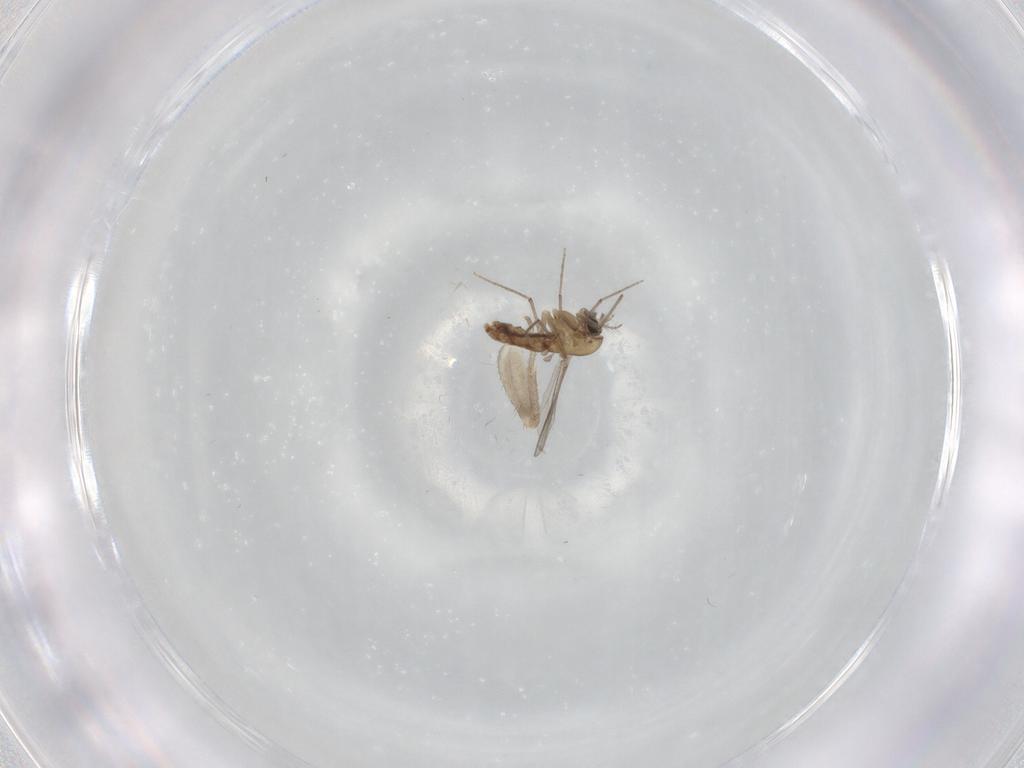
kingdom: Animalia
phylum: Arthropoda
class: Insecta
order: Diptera
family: Chironomidae
